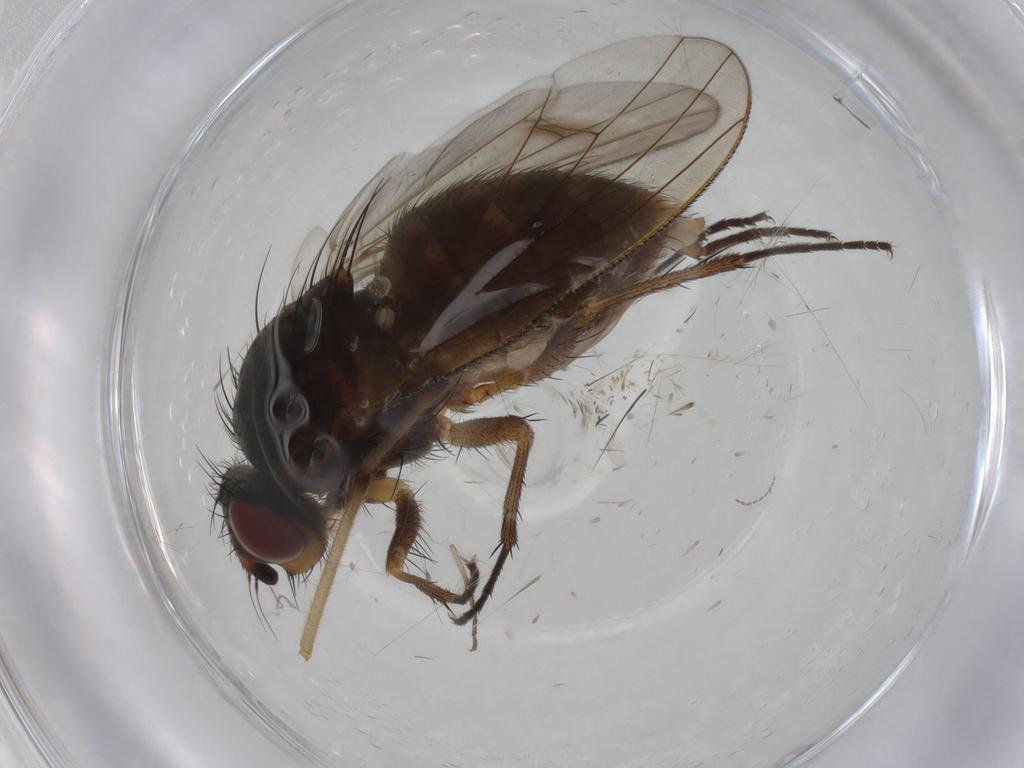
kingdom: Animalia
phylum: Arthropoda
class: Insecta
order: Diptera
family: Anthomyiidae
